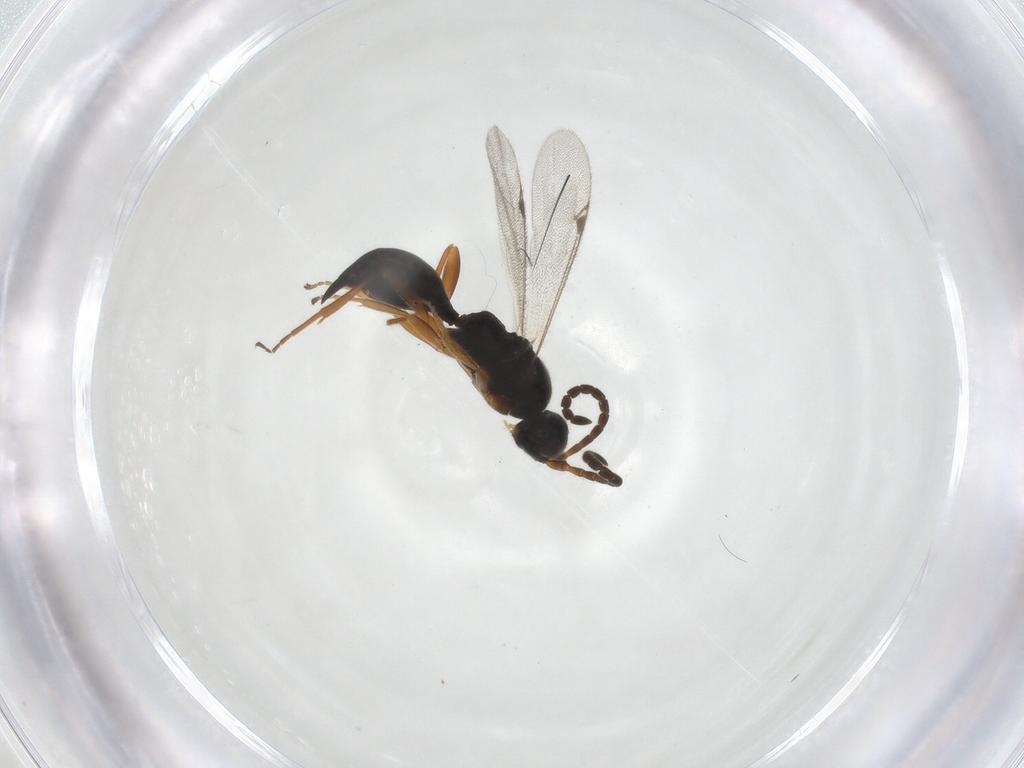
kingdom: Animalia
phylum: Arthropoda
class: Insecta
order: Hymenoptera
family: Proctotrupidae
